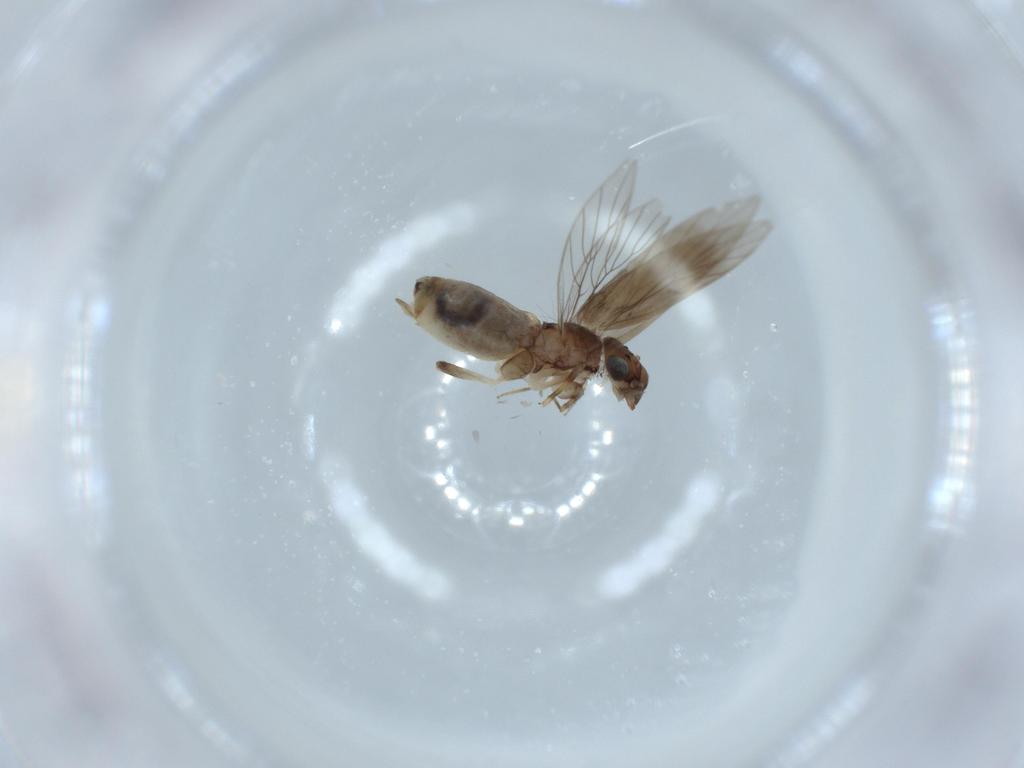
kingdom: Animalia
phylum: Arthropoda
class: Insecta
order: Psocodea
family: Lepidopsocidae
